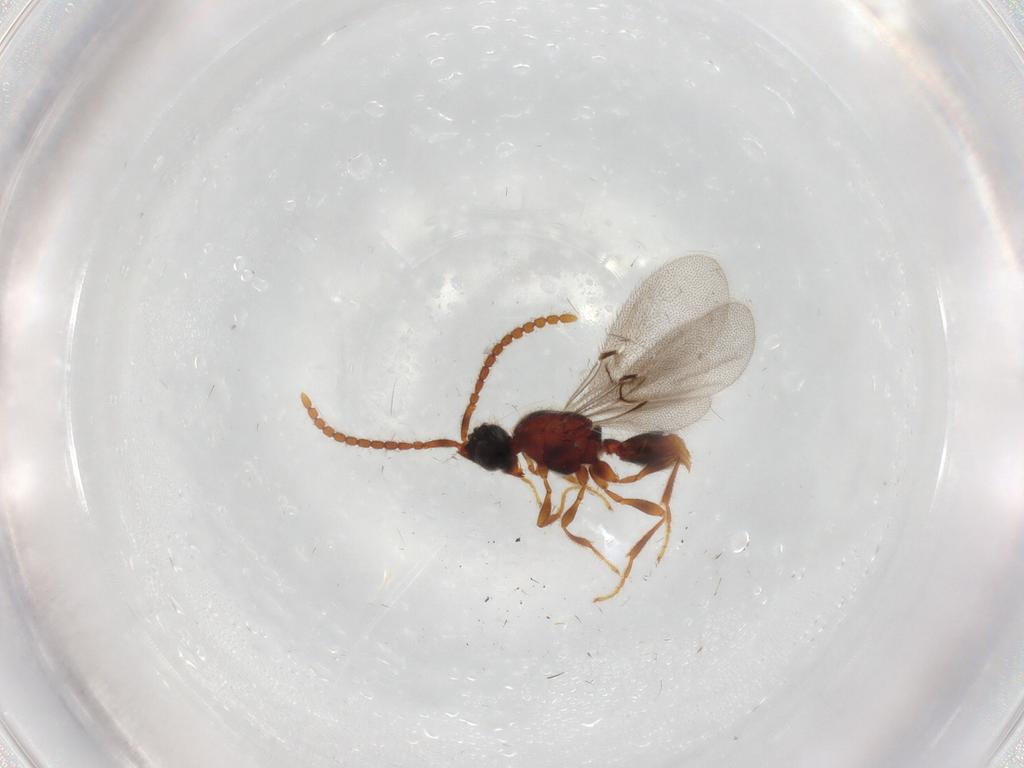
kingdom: Animalia
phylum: Arthropoda
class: Insecta
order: Hymenoptera
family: Diapriidae
